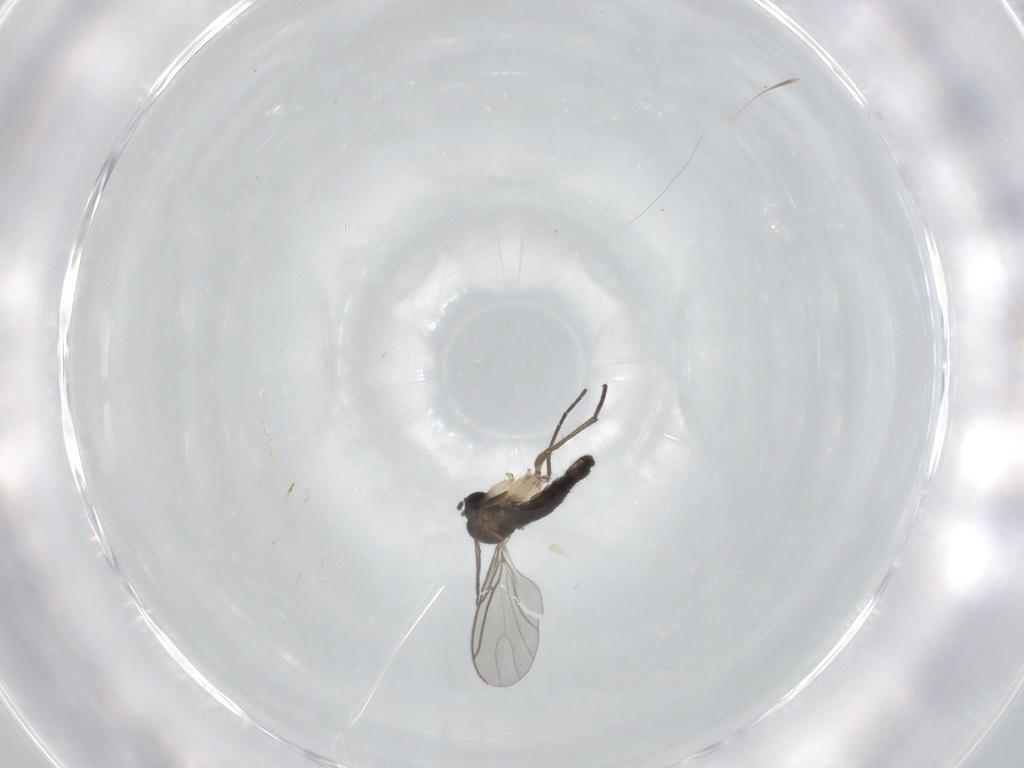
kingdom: Animalia
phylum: Arthropoda
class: Insecta
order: Diptera
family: Sciaridae
